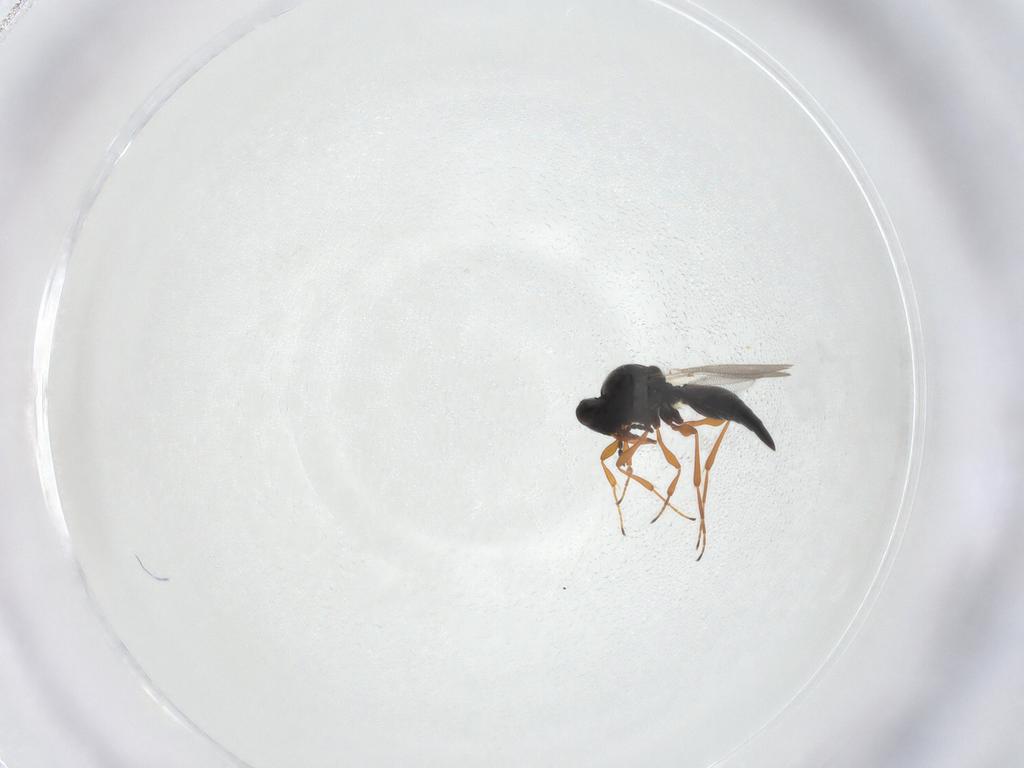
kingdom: Animalia
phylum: Arthropoda
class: Insecta
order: Hymenoptera
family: Platygastridae
